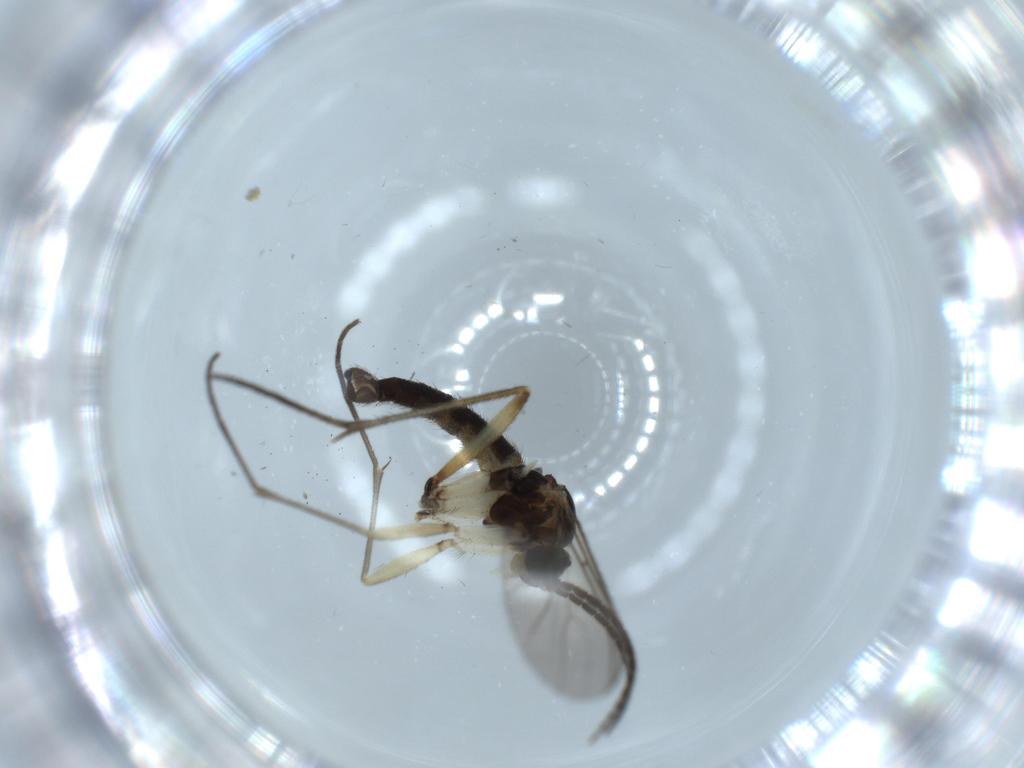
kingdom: Animalia
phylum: Arthropoda
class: Insecta
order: Diptera
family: Sciaridae
